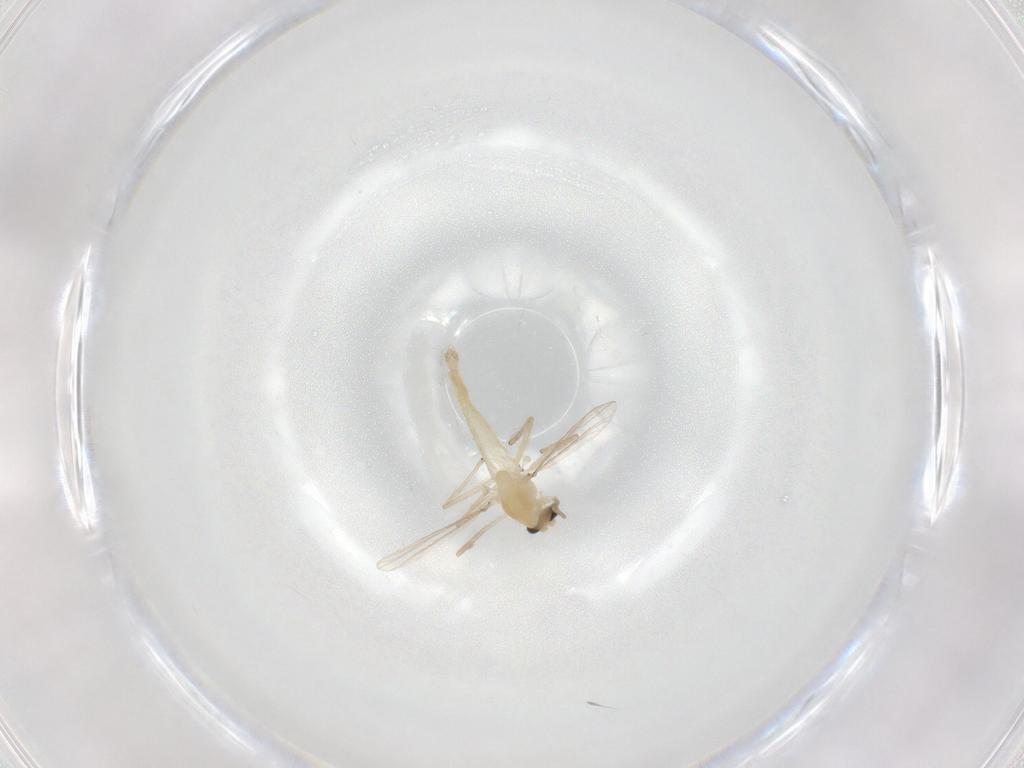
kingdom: Animalia
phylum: Arthropoda
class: Insecta
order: Diptera
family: Chironomidae
